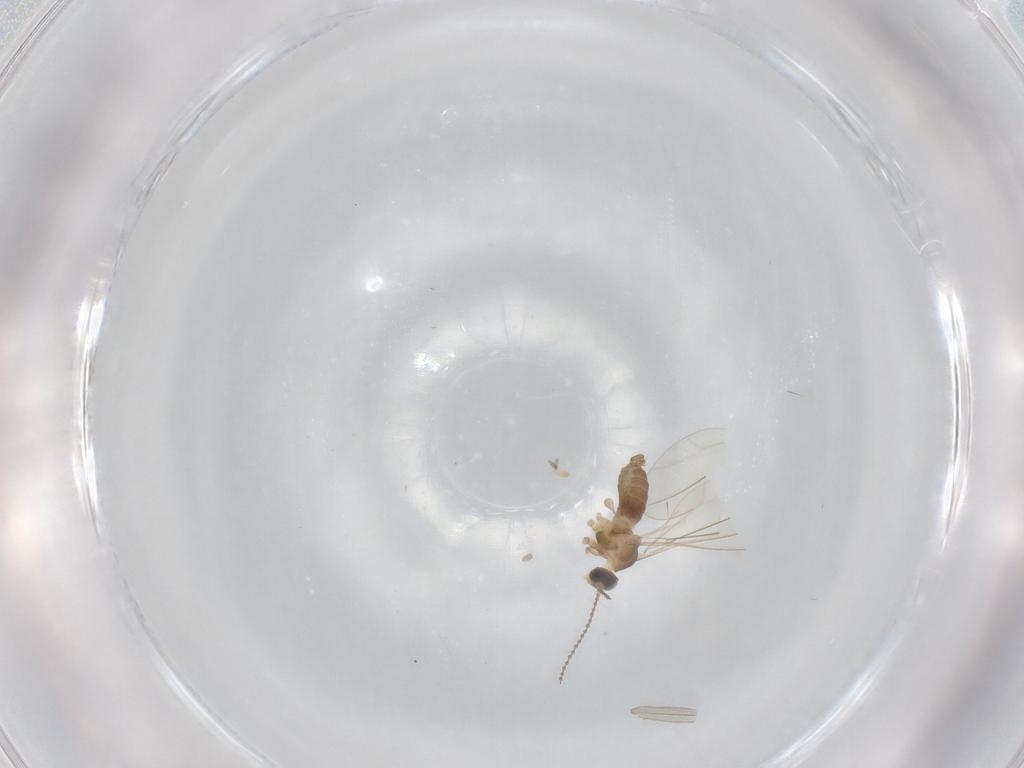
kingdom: Animalia
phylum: Arthropoda
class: Insecta
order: Diptera
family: Cecidomyiidae
